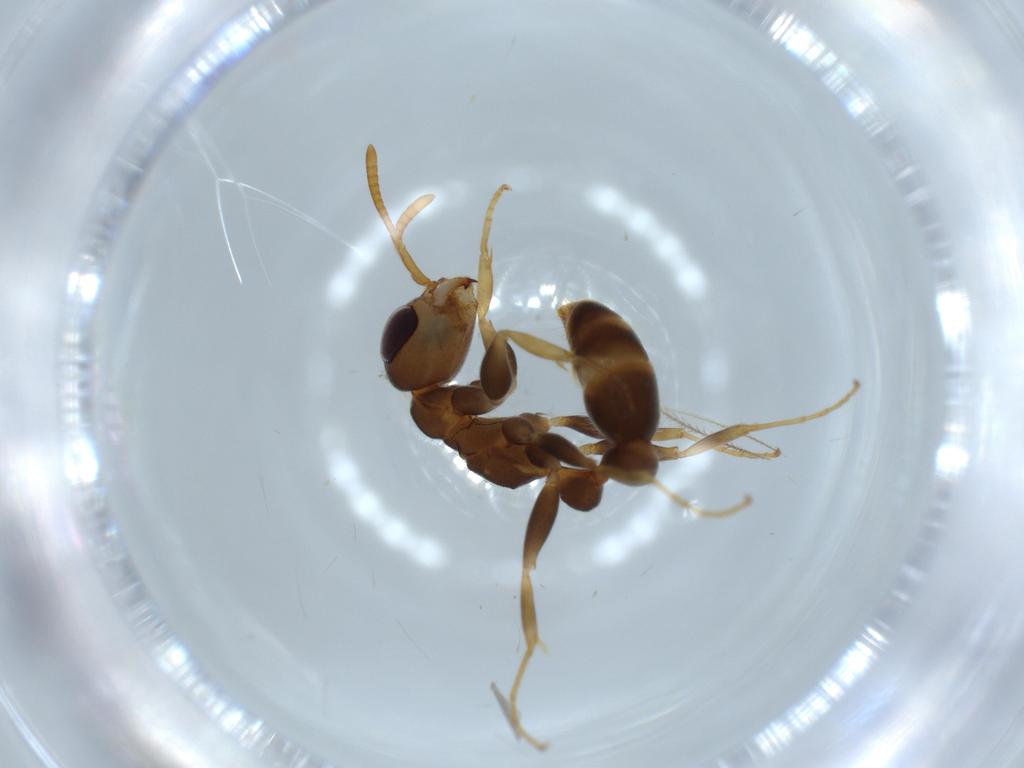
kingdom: Animalia
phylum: Arthropoda
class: Insecta
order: Hymenoptera
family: Formicidae
